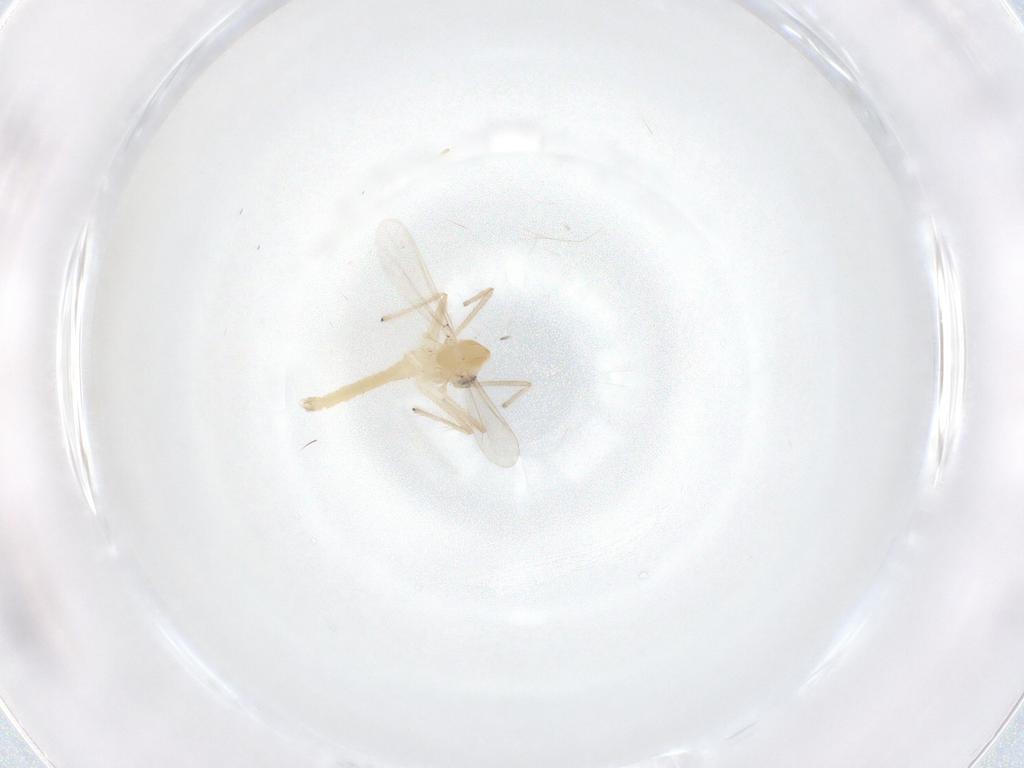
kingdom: Animalia
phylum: Arthropoda
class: Insecta
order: Diptera
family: Chironomidae
